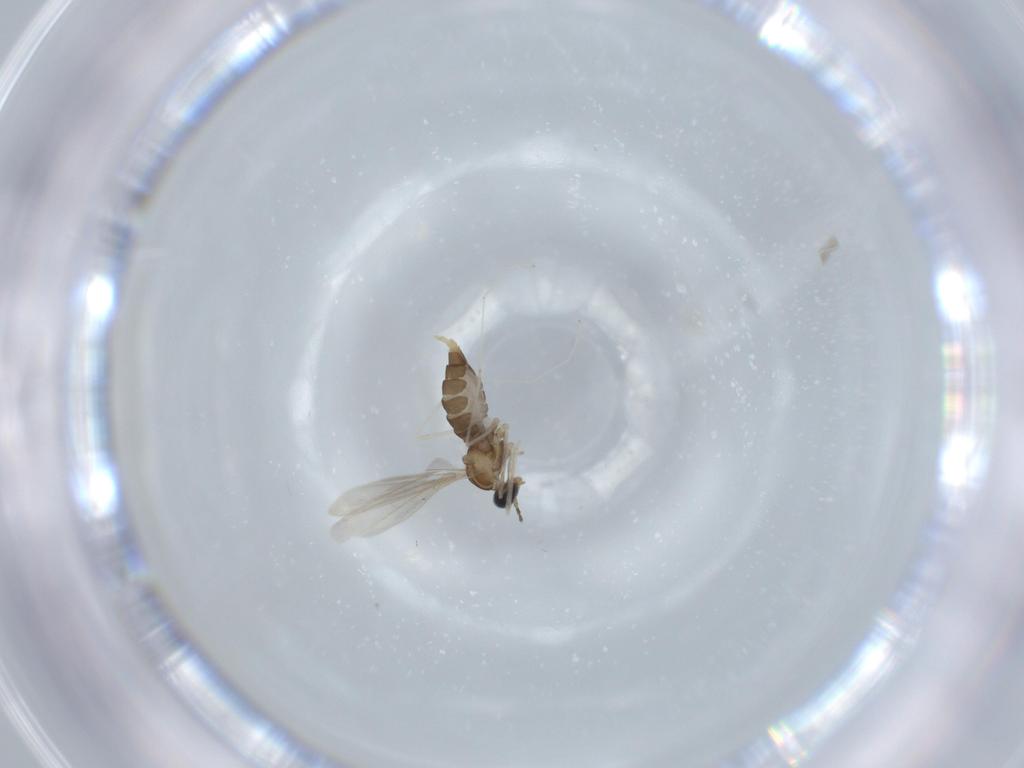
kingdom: Animalia
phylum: Arthropoda
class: Insecta
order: Diptera
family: Cecidomyiidae
